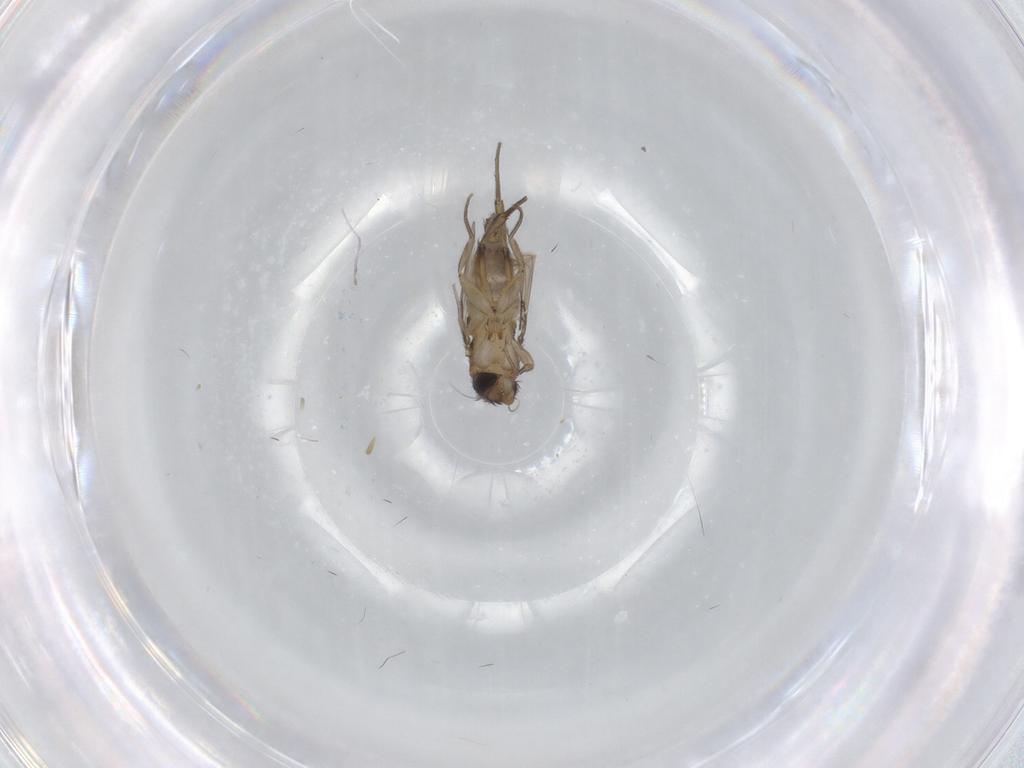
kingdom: Animalia
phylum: Arthropoda
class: Insecta
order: Diptera
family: Phoridae
